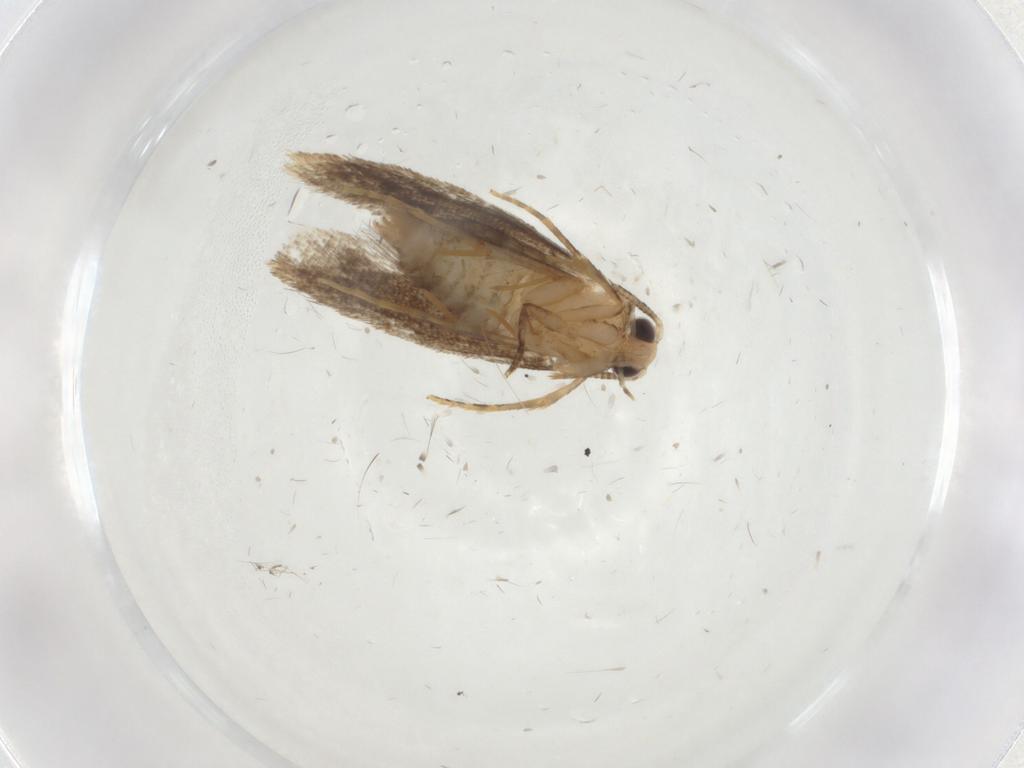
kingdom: Animalia
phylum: Arthropoda
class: Insecta
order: Lepidoptera
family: Tineidae
